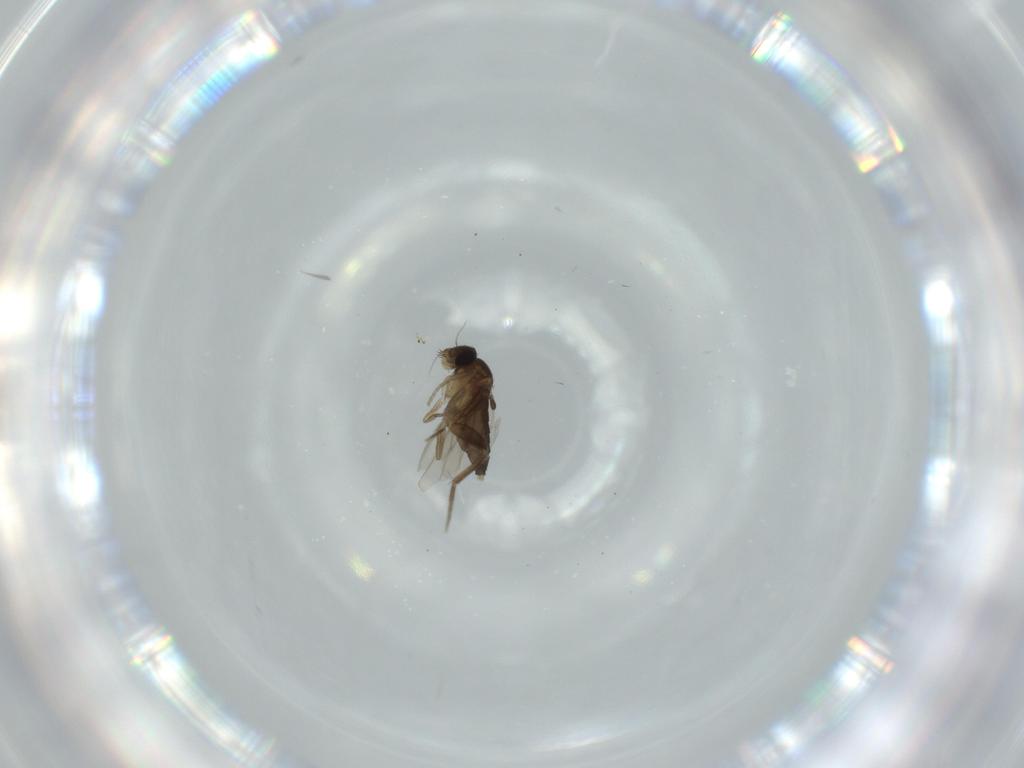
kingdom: Animalia
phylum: Arthropoda
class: Insecta
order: Diptera
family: Phoridae
